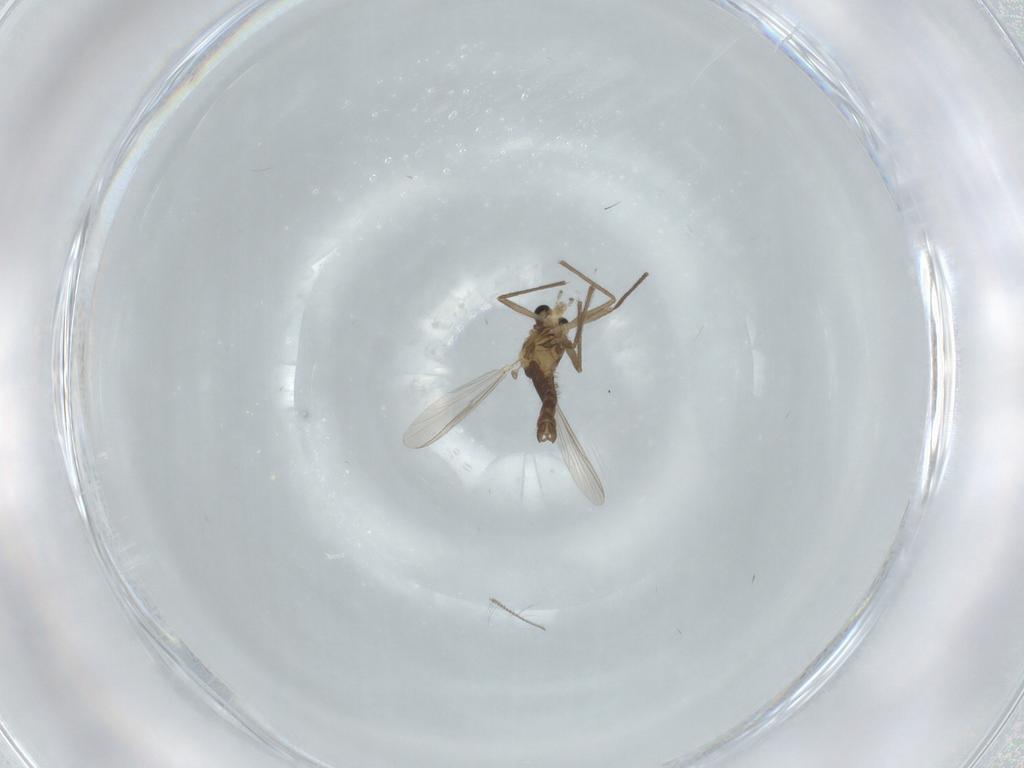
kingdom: Animalia
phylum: Arthropoda
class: Insecta
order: Diptera
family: Chironomidae
